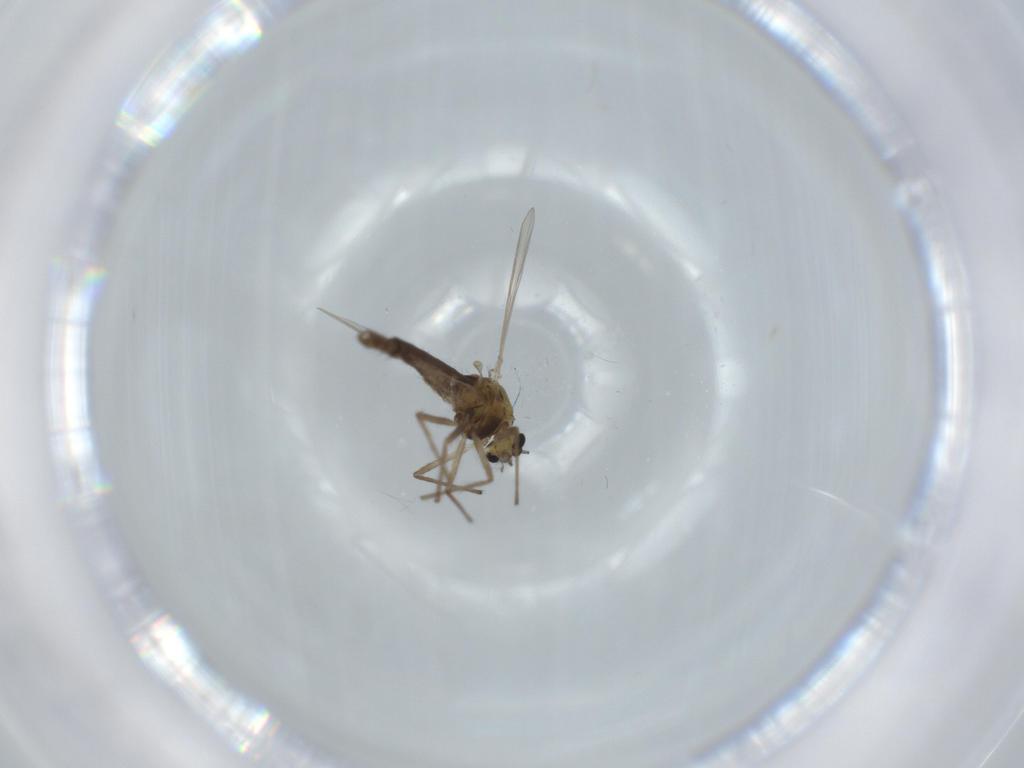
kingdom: Animalia
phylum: Arthropoda
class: Insecta
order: Diptera
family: Chironomidae
